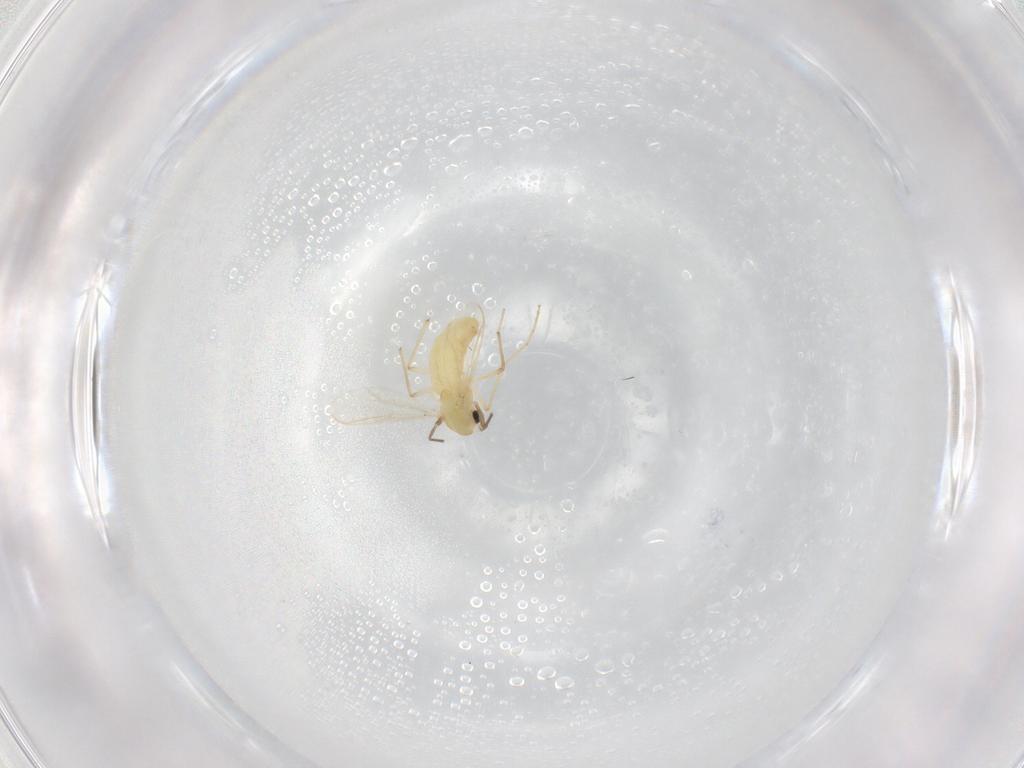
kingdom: Animalia
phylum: Arthropoda
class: Insecta
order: Diptera
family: Chironomidae
